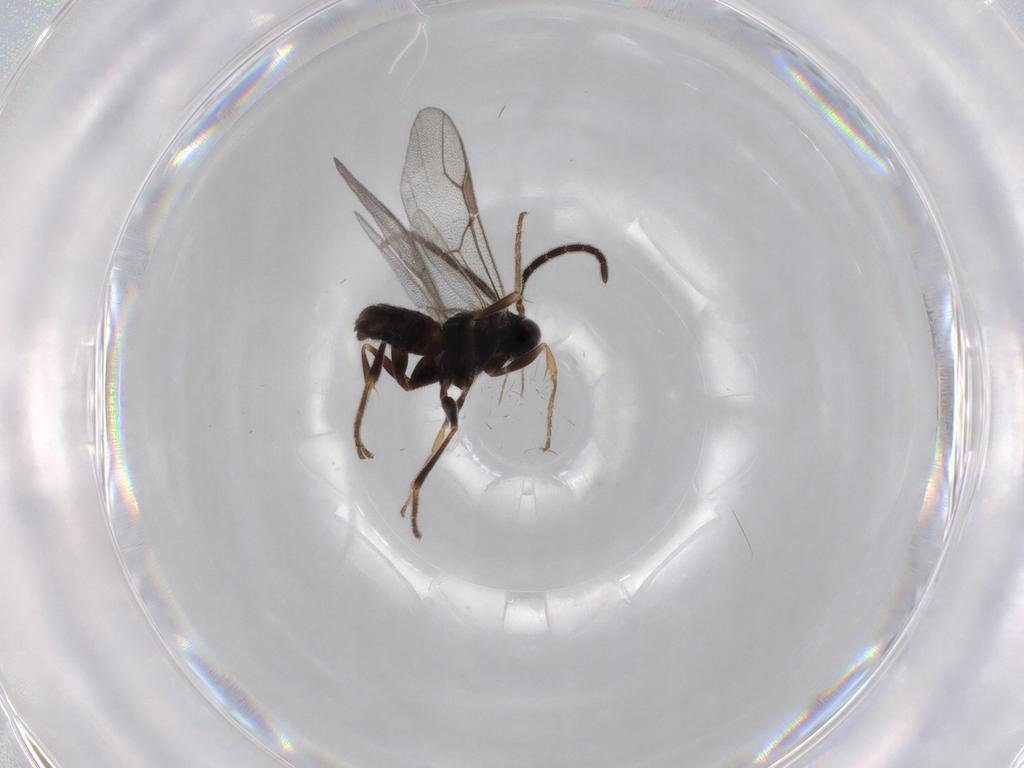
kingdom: Animalia
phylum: Arthropoda
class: Insecta
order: Hymenoptera
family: Dryinidae
